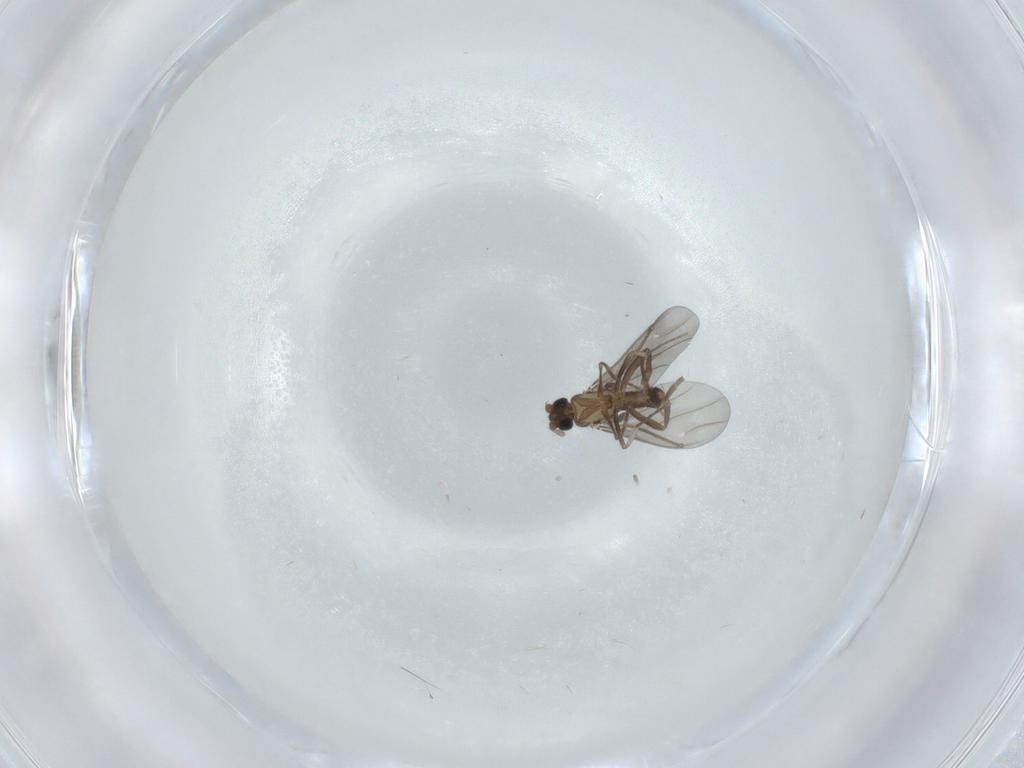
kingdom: Animalia
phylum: Arthropoda
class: Insecta
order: Diptera
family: Phoridae
